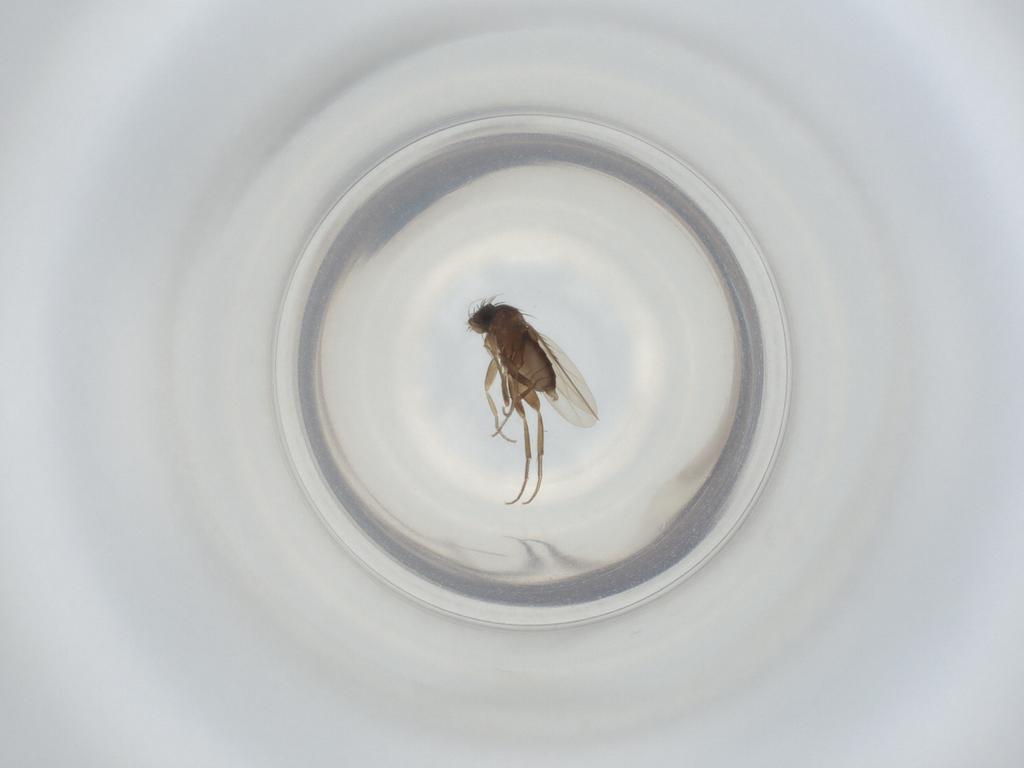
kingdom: Animalia
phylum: Arthropoda
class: Insecta
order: Diptera
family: Phoridae
